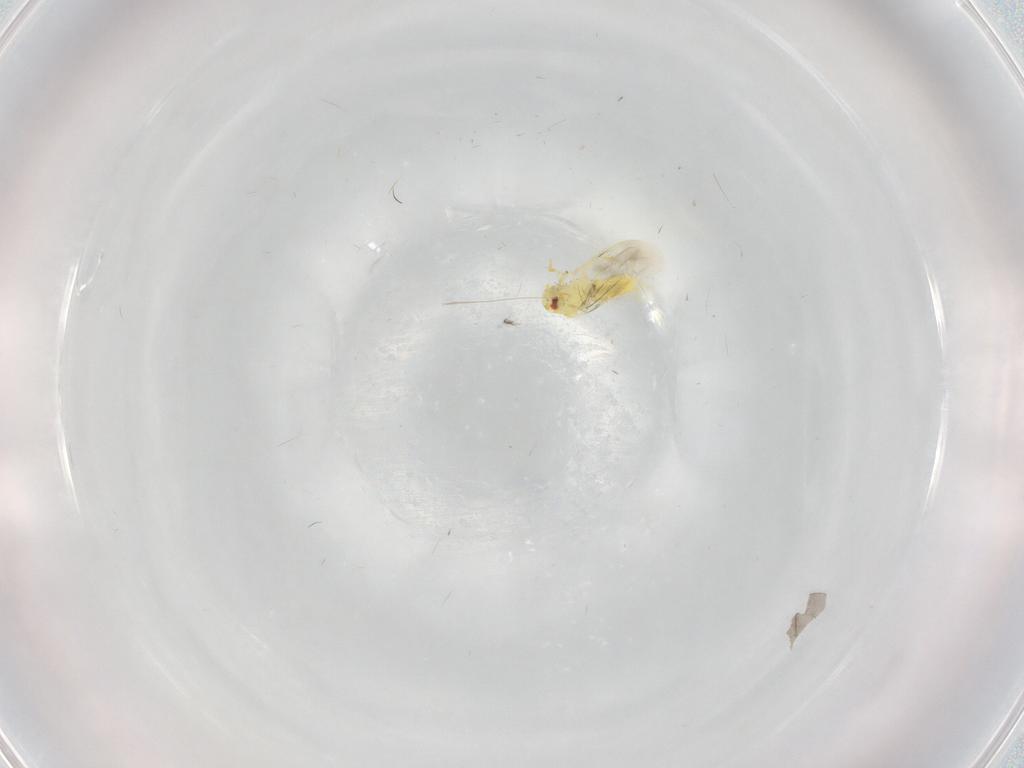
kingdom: Animalia
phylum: Arthropoda
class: Insecta
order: Hemiptera
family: Aleyrodidae
